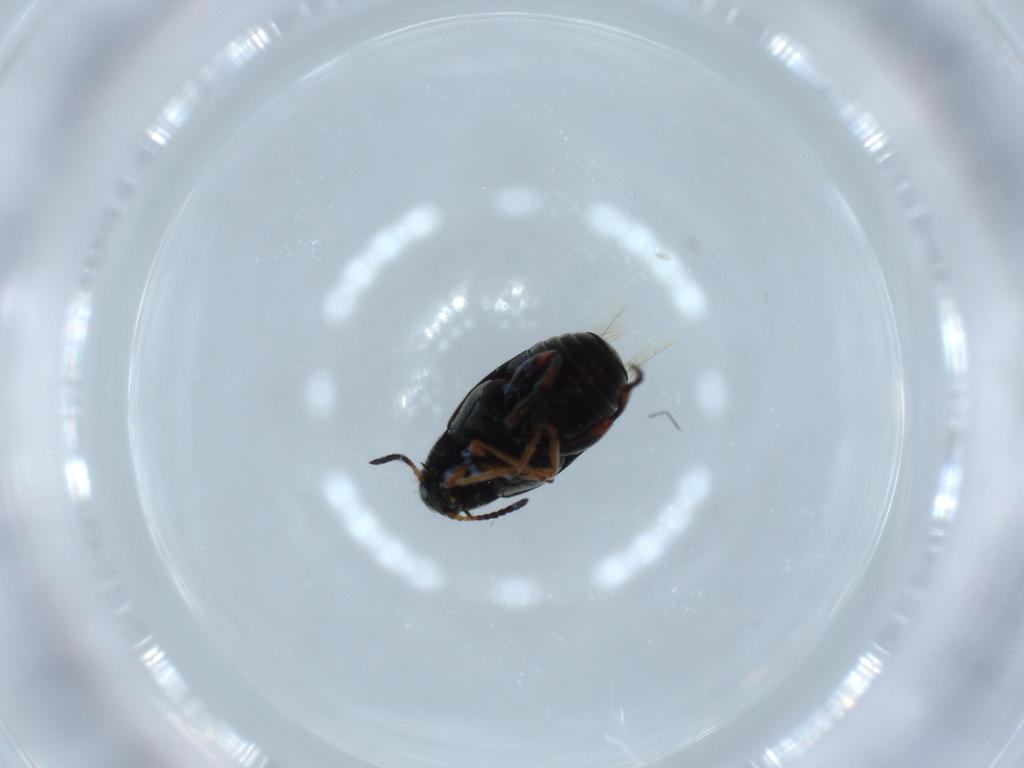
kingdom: Animalia
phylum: Arthropoda
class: Insecta
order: Coleoptera
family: Chrysomelidae
